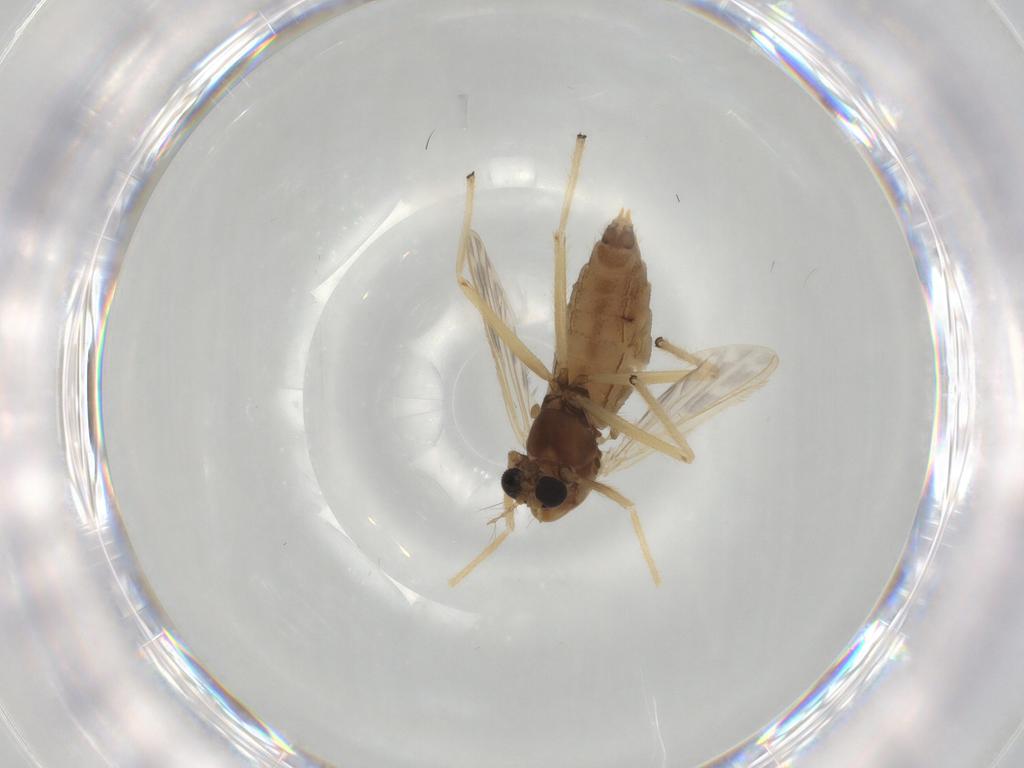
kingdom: Animalia
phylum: Arthropoda
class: Insecta
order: Diptera
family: Chironomidae
